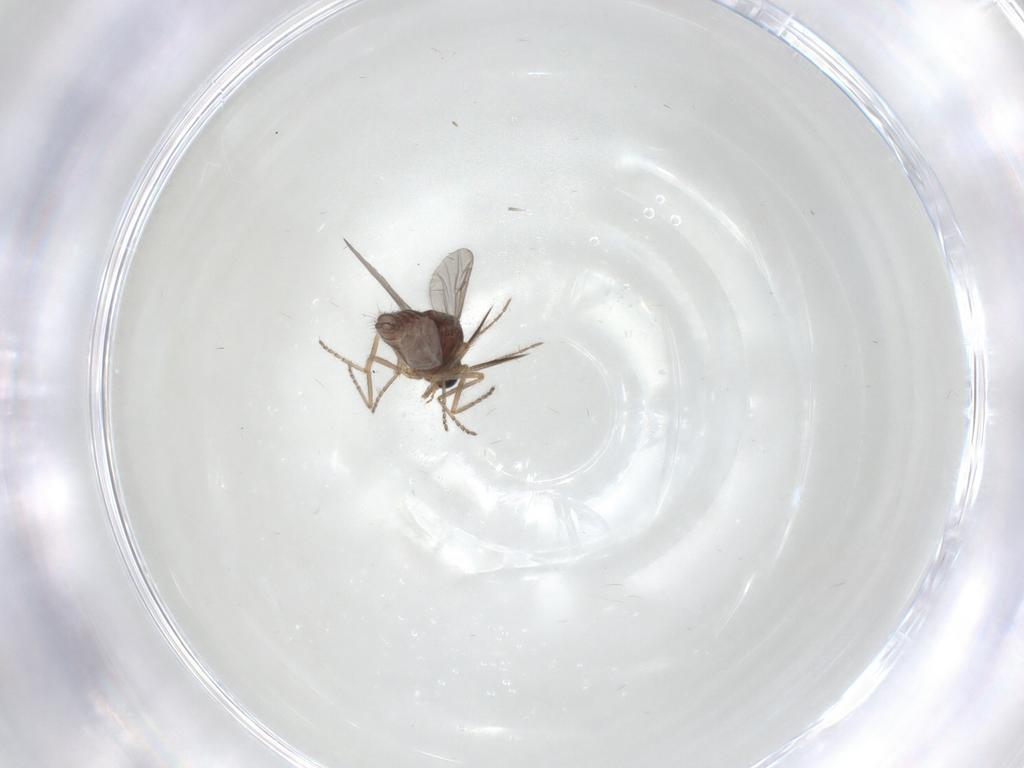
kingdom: Animalia
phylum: Arthropoda
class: Insecta
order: Diptera
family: Ceratopogonidae
